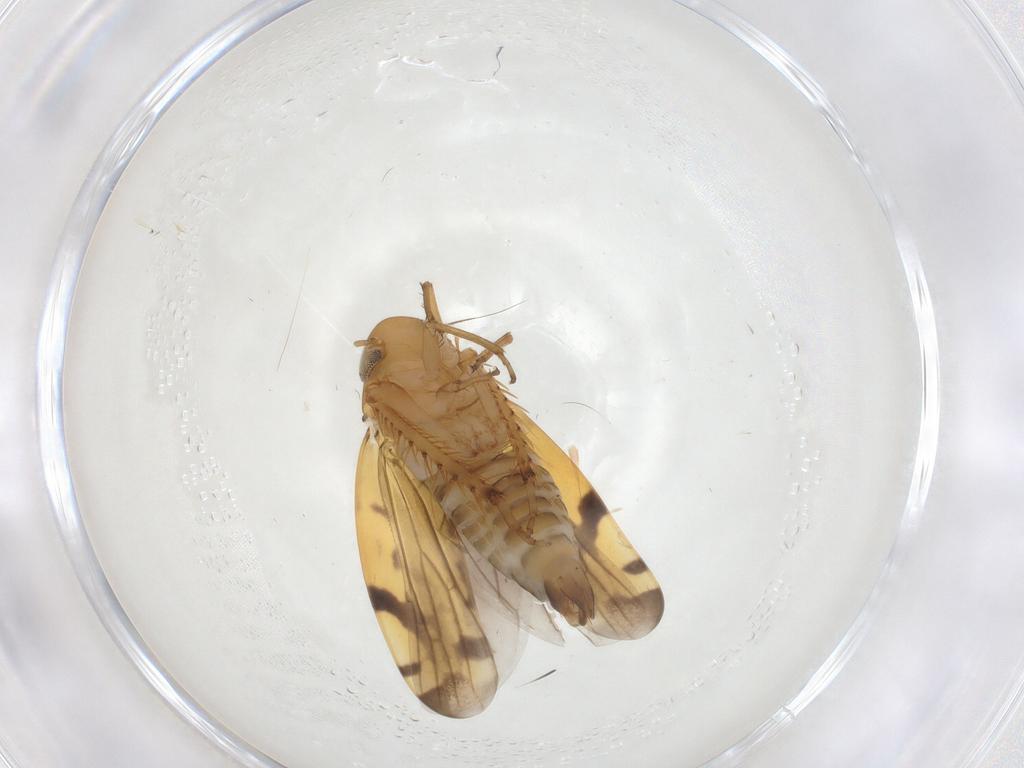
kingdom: Animalia
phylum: Arthropoda
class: Insecta
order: Hemiptera
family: Cicadellidae
